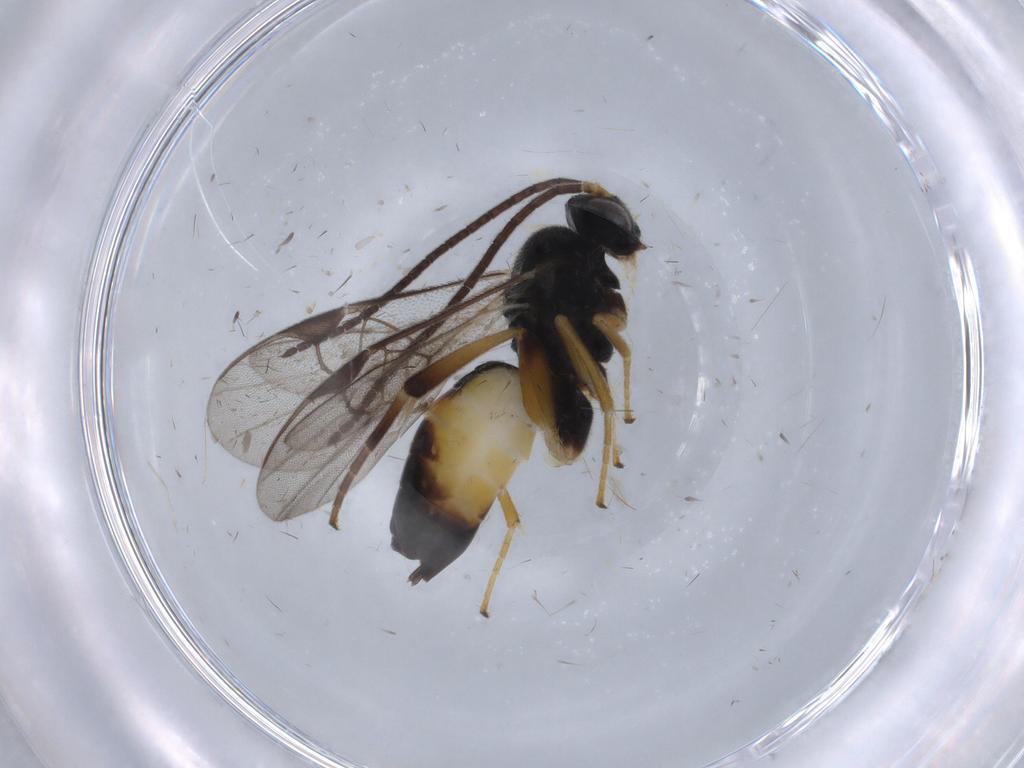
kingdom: Animalia
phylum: Arthropoda
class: Insecta
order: Hymenoptera
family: Braconidae
